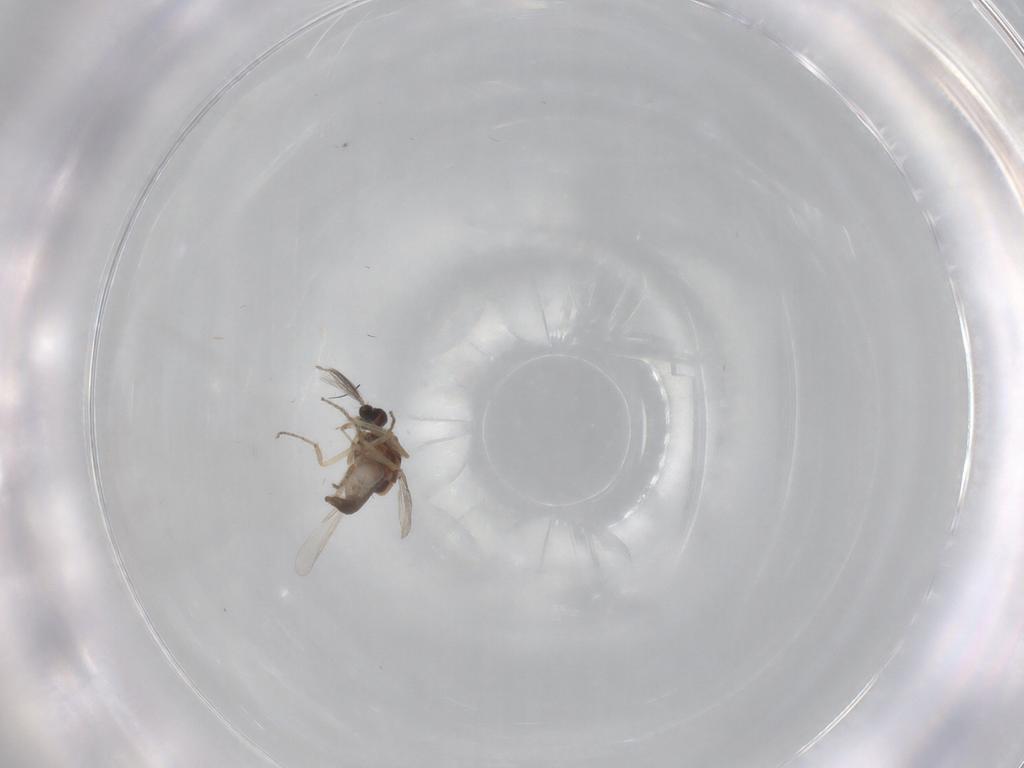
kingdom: Animalia
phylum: Arthropoda
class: Insecta
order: Diptera
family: Ceratopogonidae
